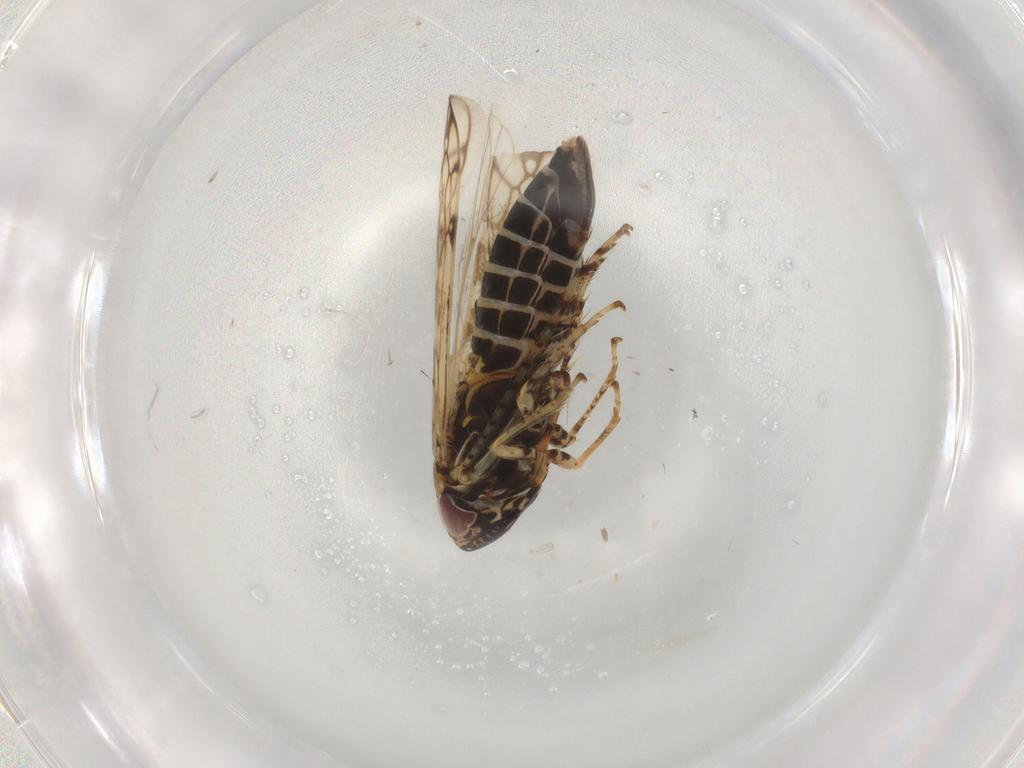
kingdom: Animalia
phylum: Arthropoda
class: Insecta
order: Hemiptera
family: Cicadellidae
